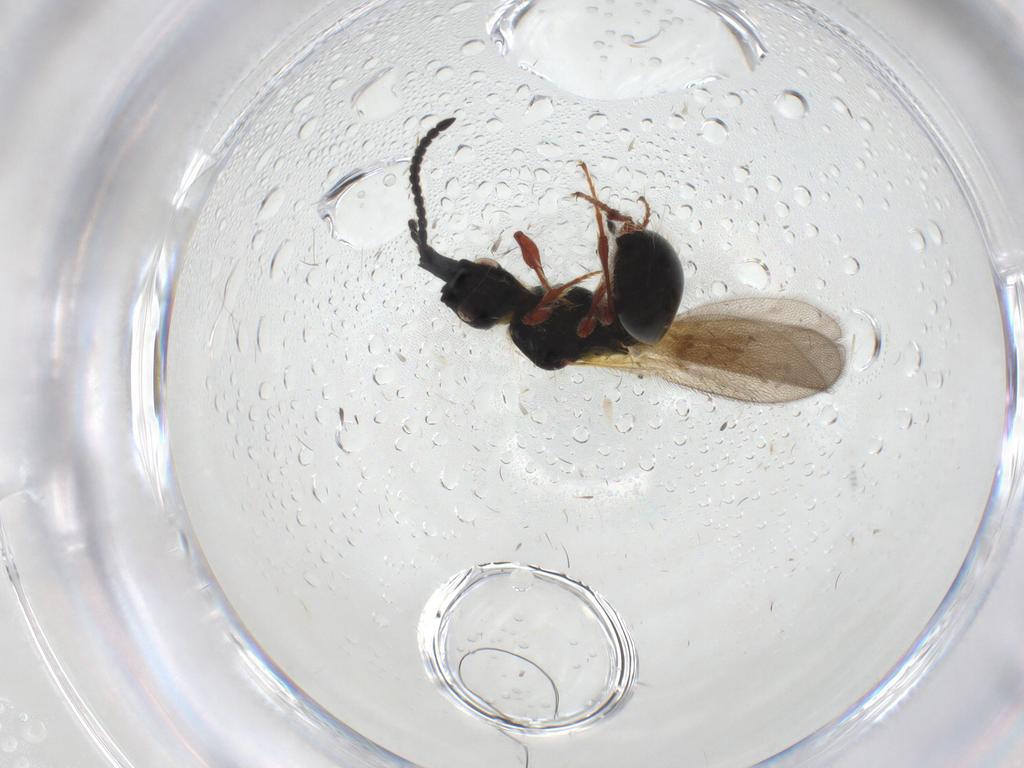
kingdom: Animalia
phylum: Arthropoda
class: Insecta
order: Hymenoptera
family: Diapriidae
